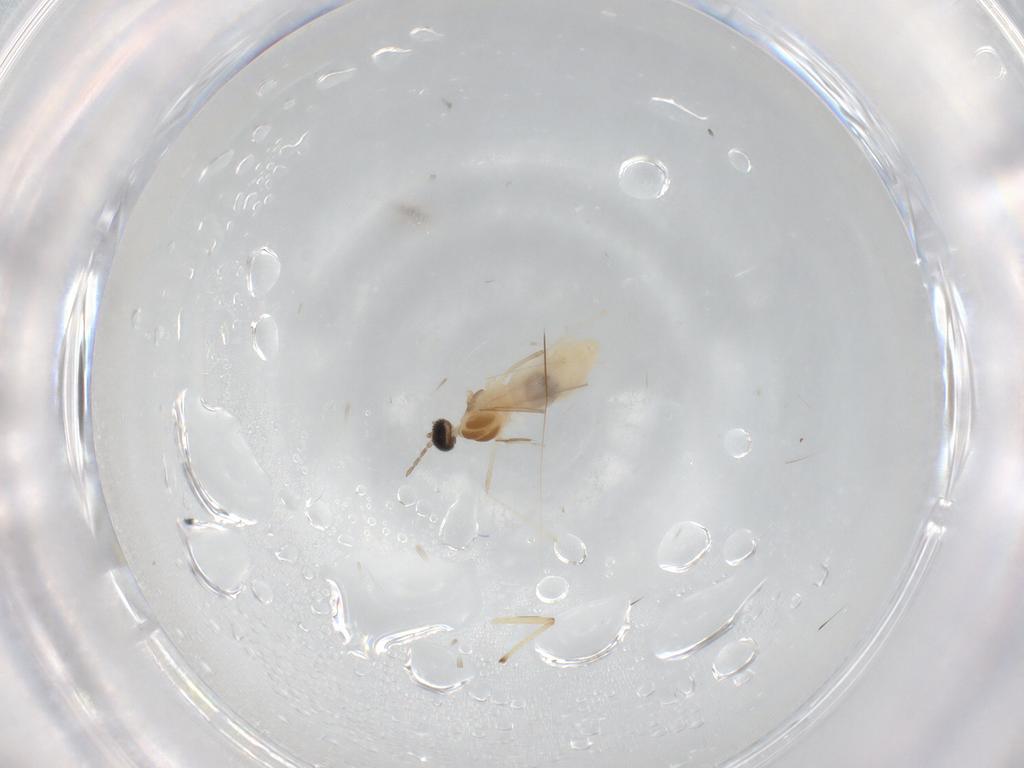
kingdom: Animalia
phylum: Arthropoda
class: Insecta
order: Diptera
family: Cecidomyiidae
